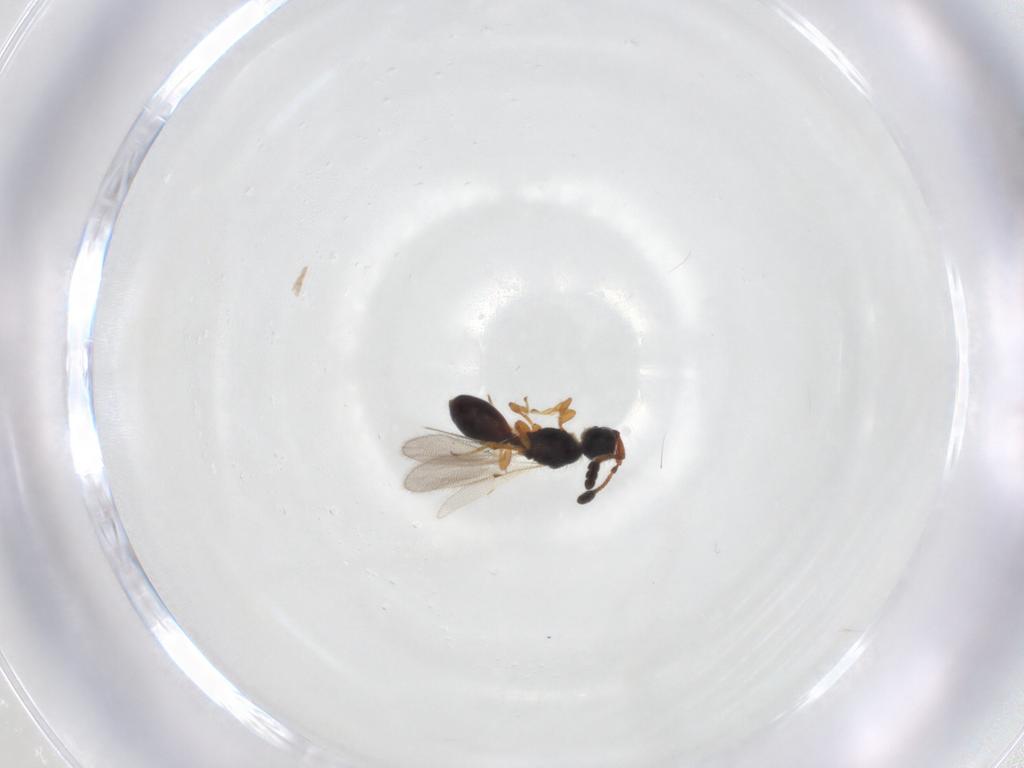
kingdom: Animalia
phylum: Arthropoda
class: Insecta
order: Hymenoptera
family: Diapriidae
